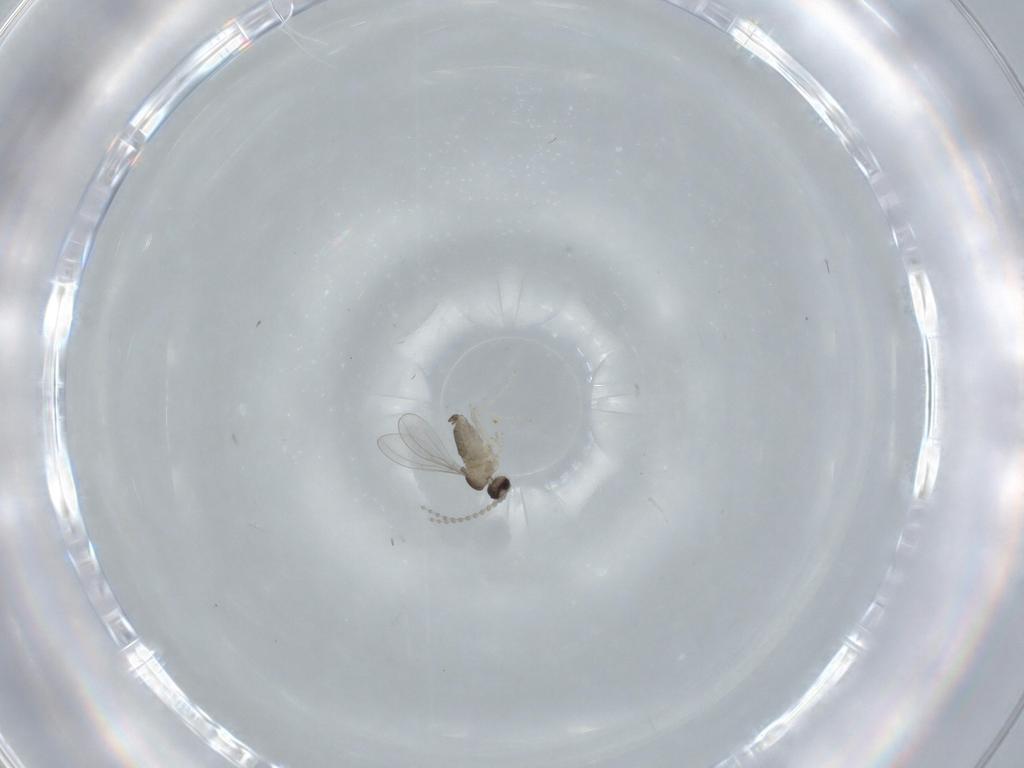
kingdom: Animalia
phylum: Arthropoda
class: Insecta
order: Diptera
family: Cecidomyiidae
